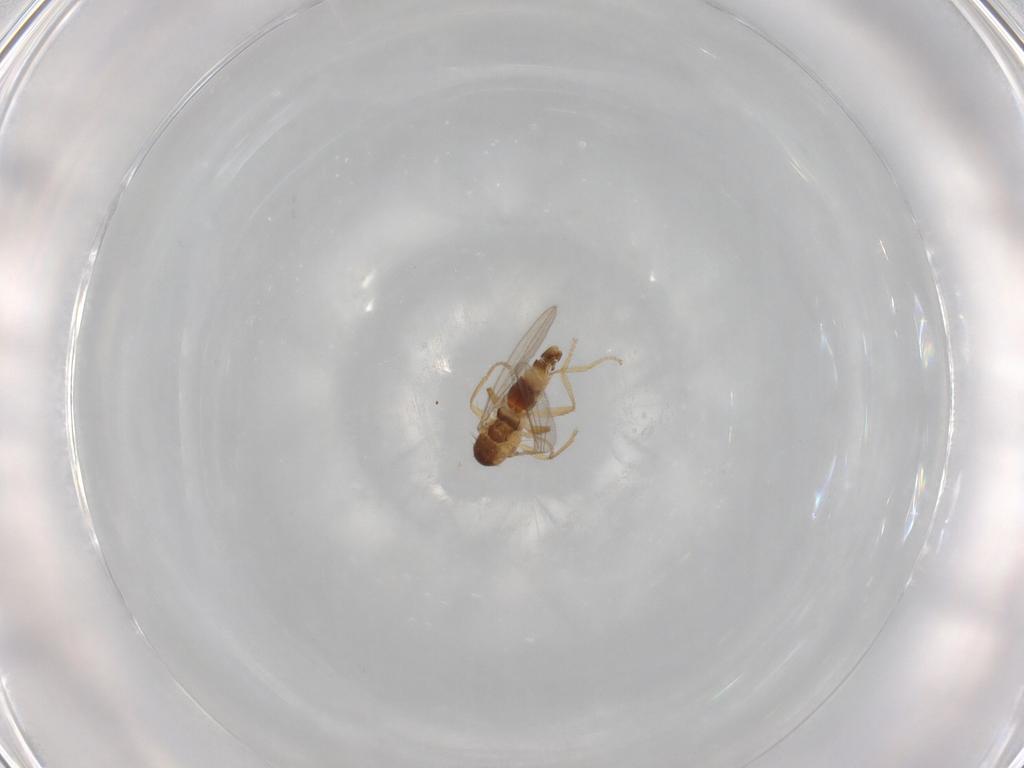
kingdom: Animalia
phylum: Arthropoda
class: Insecta
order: Diptera
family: Periscelididae
